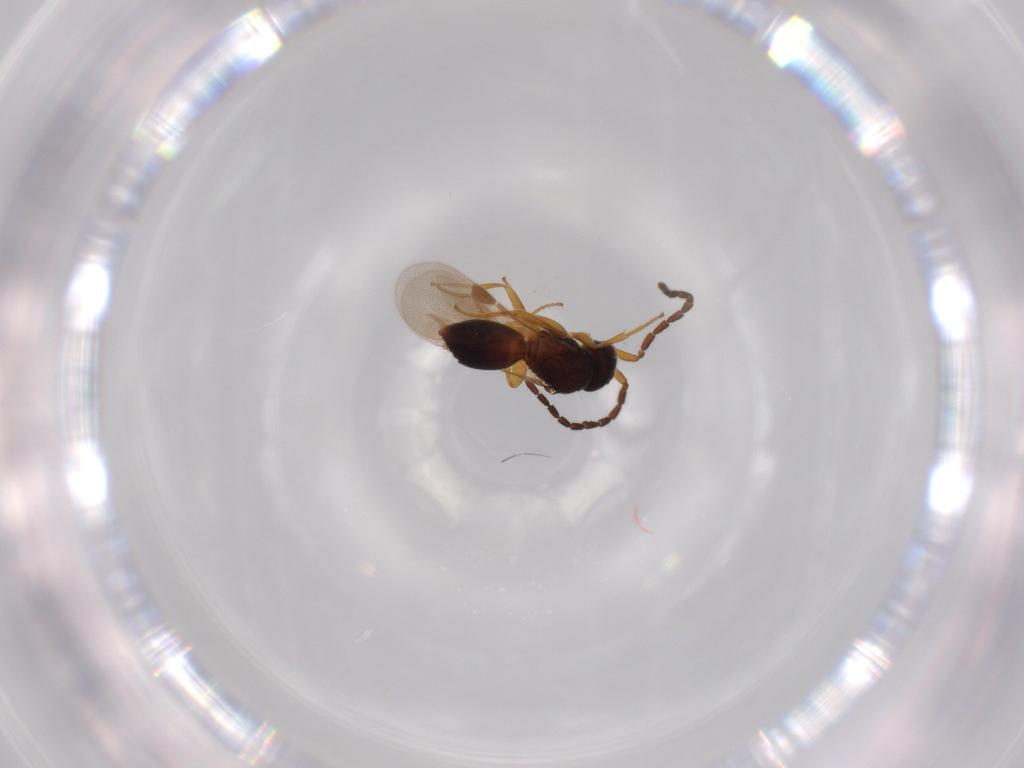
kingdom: Animalia
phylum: Arthropoda
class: Insecta
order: Hymenoptera
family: Megaspilidae
